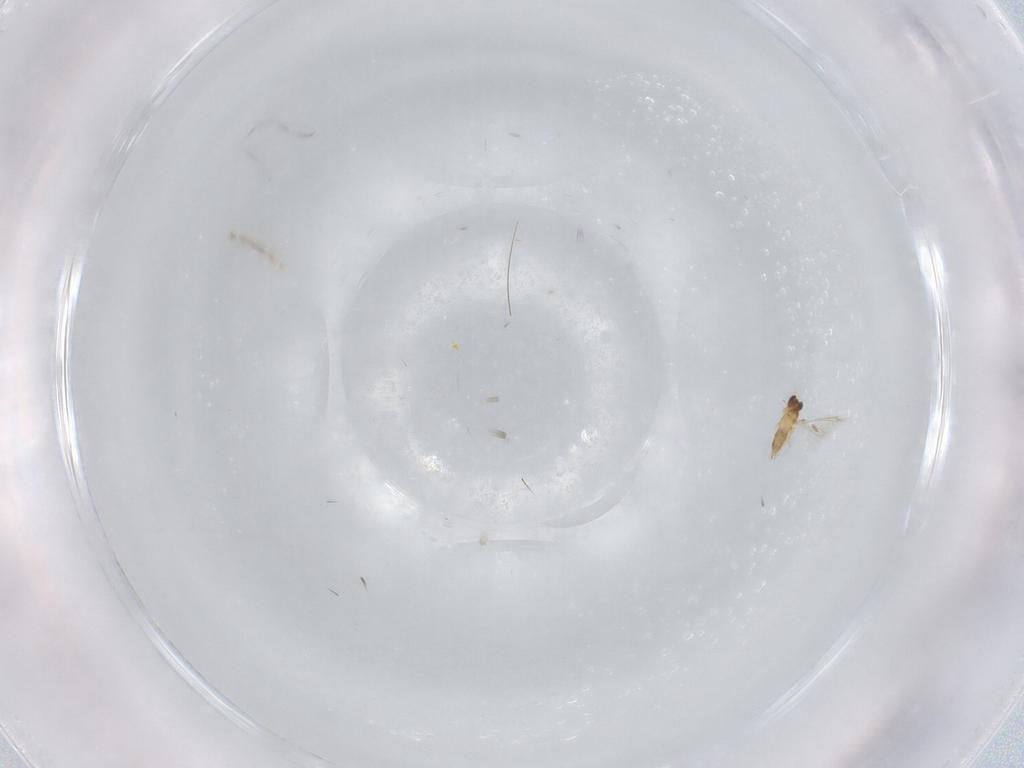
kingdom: Animalia
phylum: Arthropoda
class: Insecta
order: Hymenoptera
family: Mymaridae
